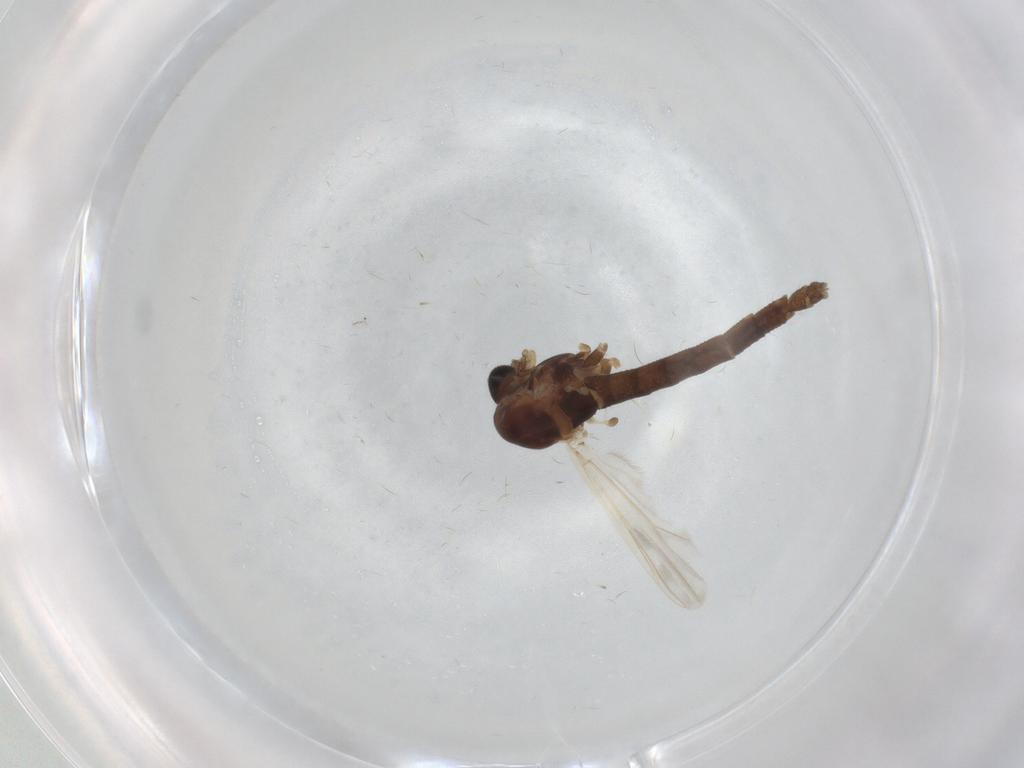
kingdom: Animalia
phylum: Arthropoda
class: Insecta
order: Diptera
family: Chironomidae
